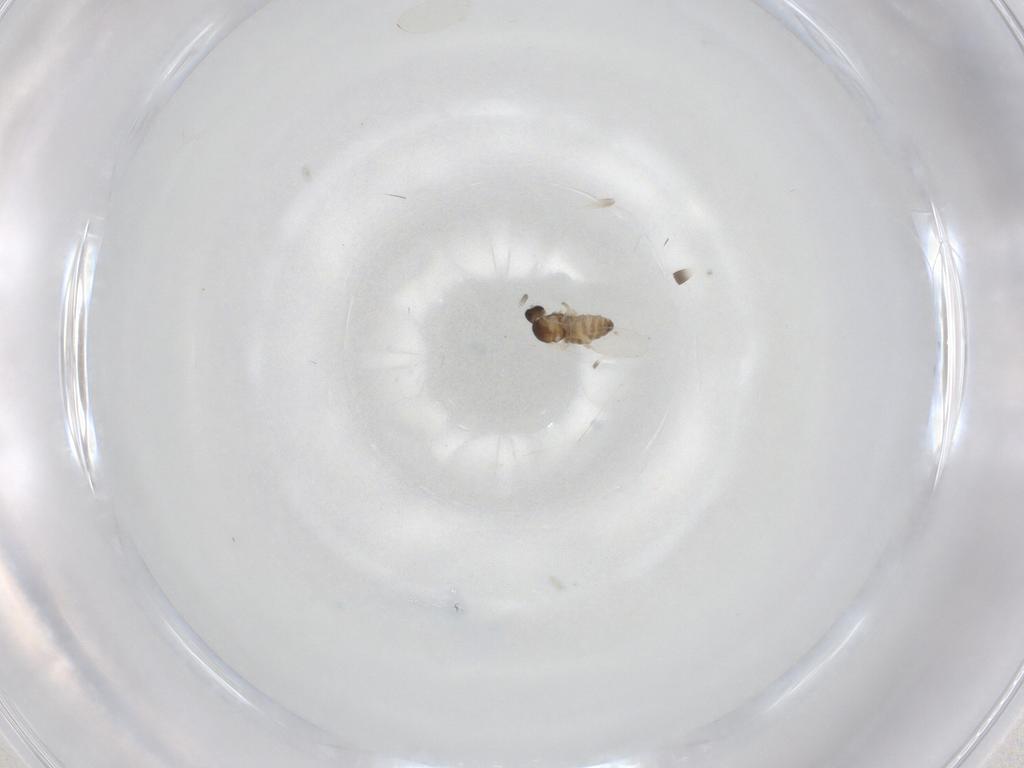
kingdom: Animalia
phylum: Arthropoda
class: Insecta
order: Diptera
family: Cecidomyiidae
